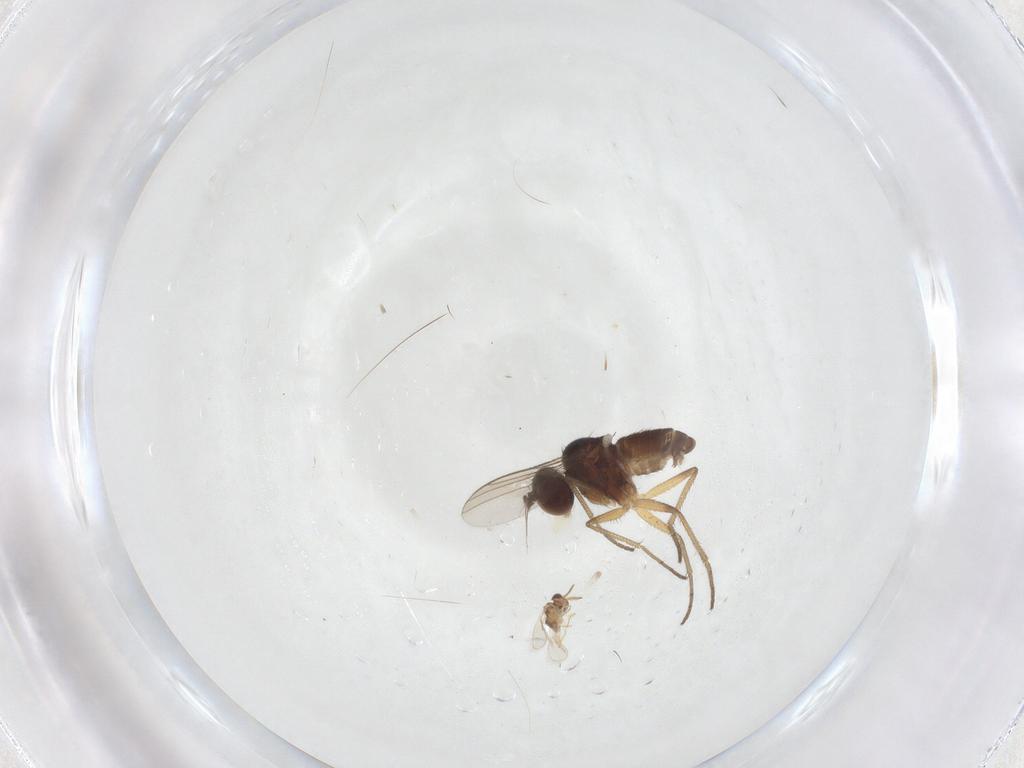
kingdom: Animalia
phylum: Arthropoda
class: Insecta
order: Diptera
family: Dolichopodidae
